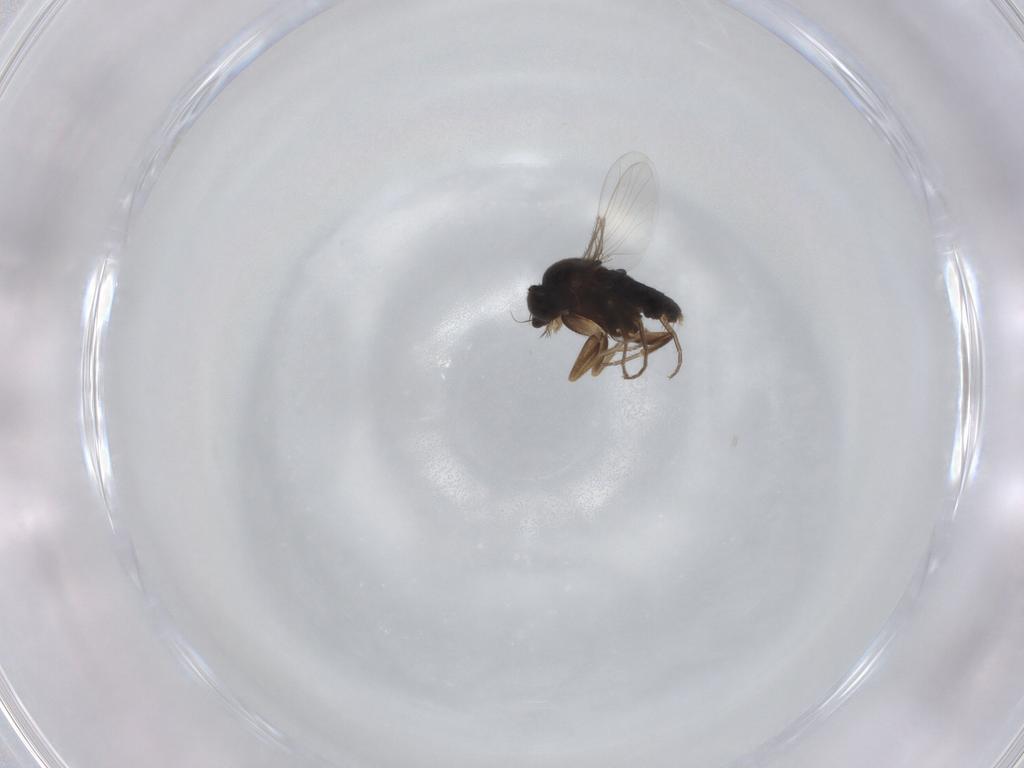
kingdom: Animalia
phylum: Arthropoda
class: Insecta
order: Diptera
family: Phoridae
